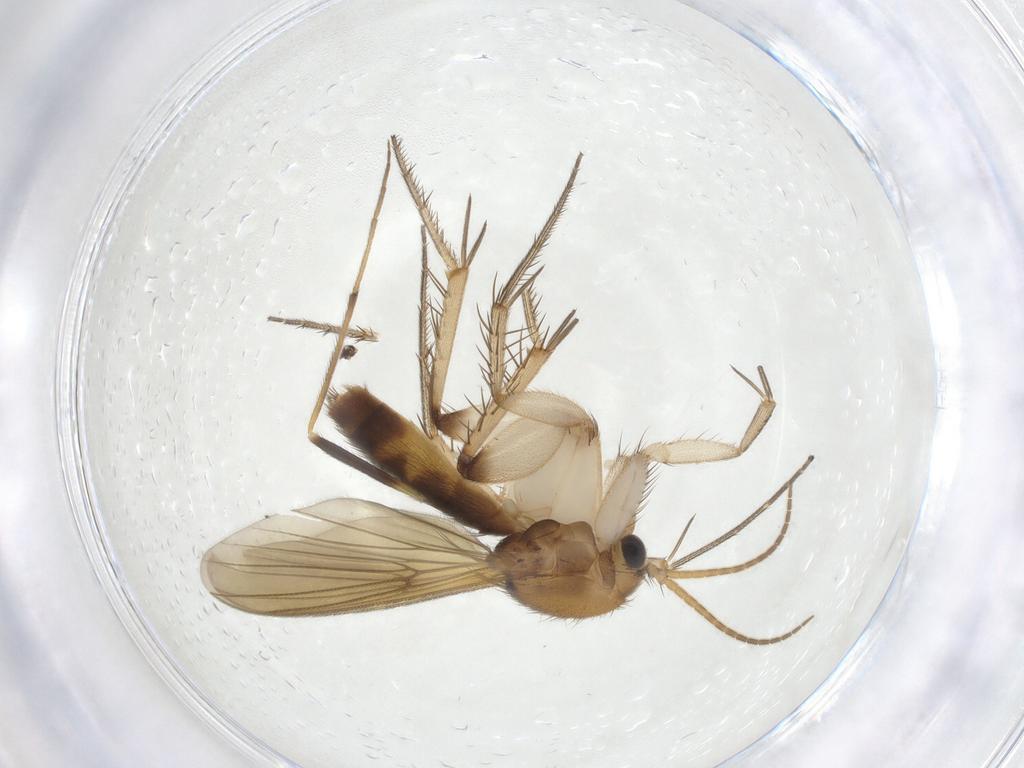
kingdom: Animalia
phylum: Arthropoda
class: Insecta
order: Diptera
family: Mycetophilidae
